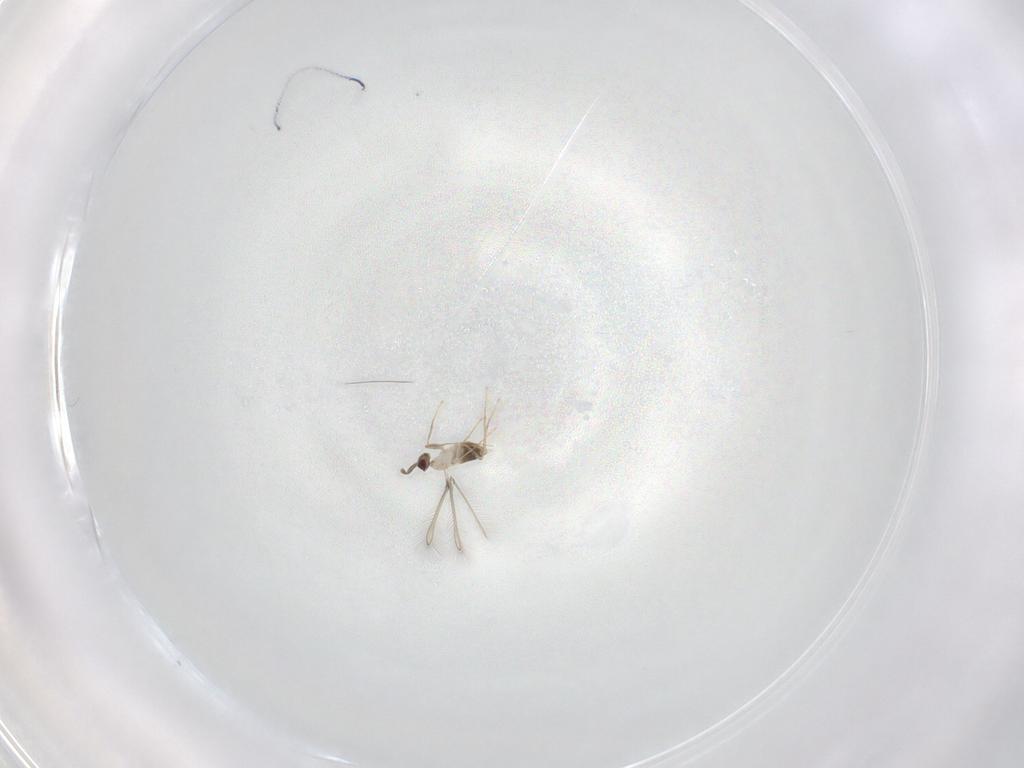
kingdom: Animalia
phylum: Arthropoda
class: Insecta
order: Hymenoptera
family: Mymaridae
